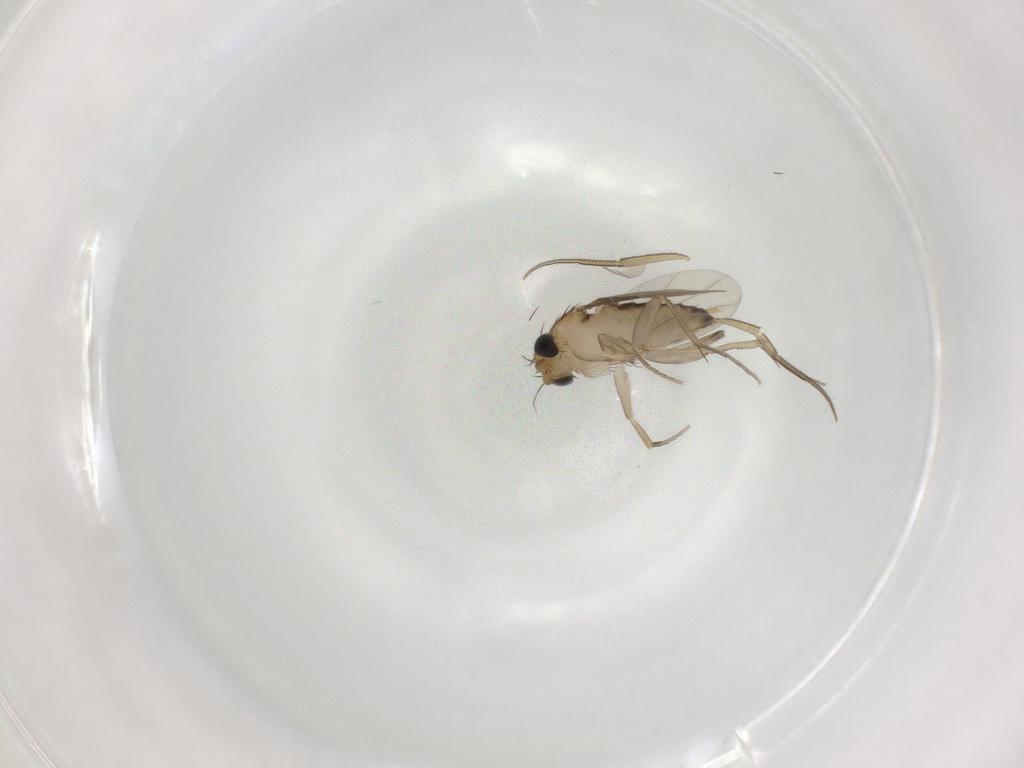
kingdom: Animalia
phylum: Arthropoda
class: Insecta
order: Diptera
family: Phoridae
